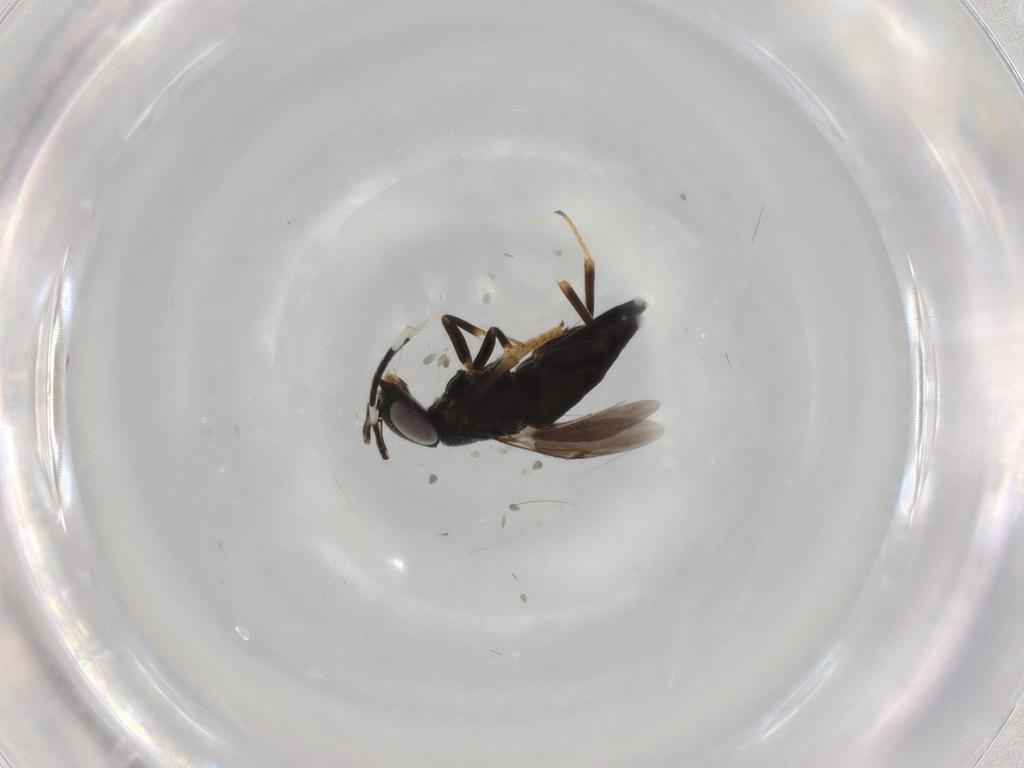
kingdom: Animalia
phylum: Arthropoda
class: Insecta
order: Hymenoptera
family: Encyrtidae
